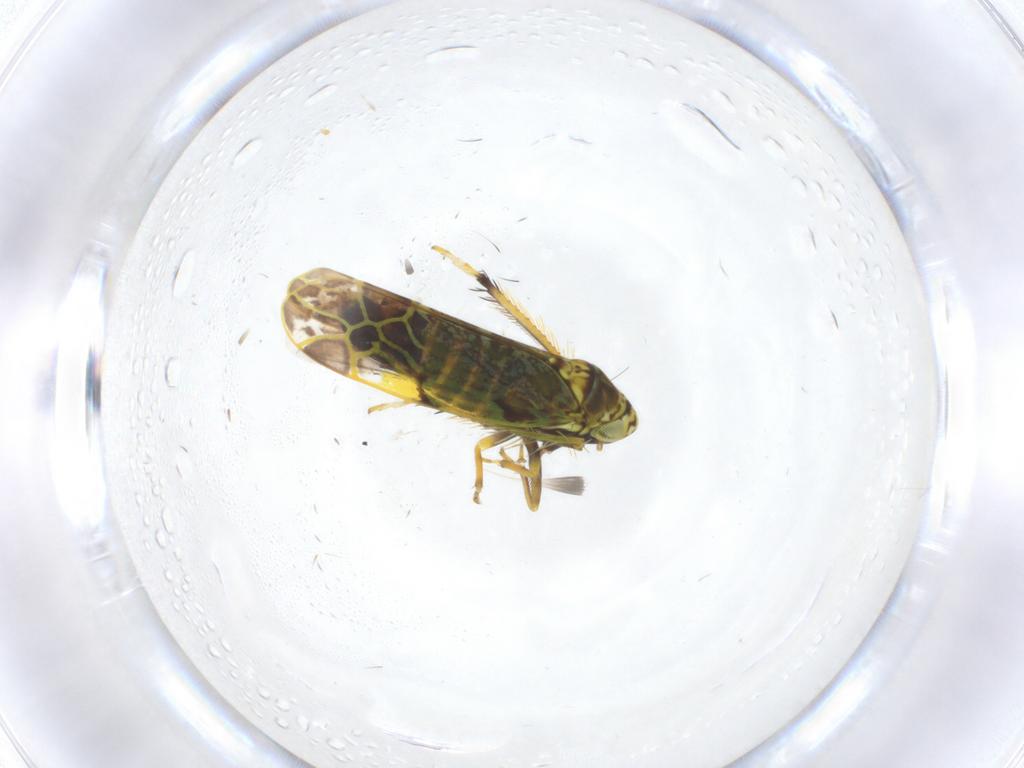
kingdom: Animalia
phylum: Arthropoda
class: Insecta
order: Hemiptera
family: Cicadellidae
